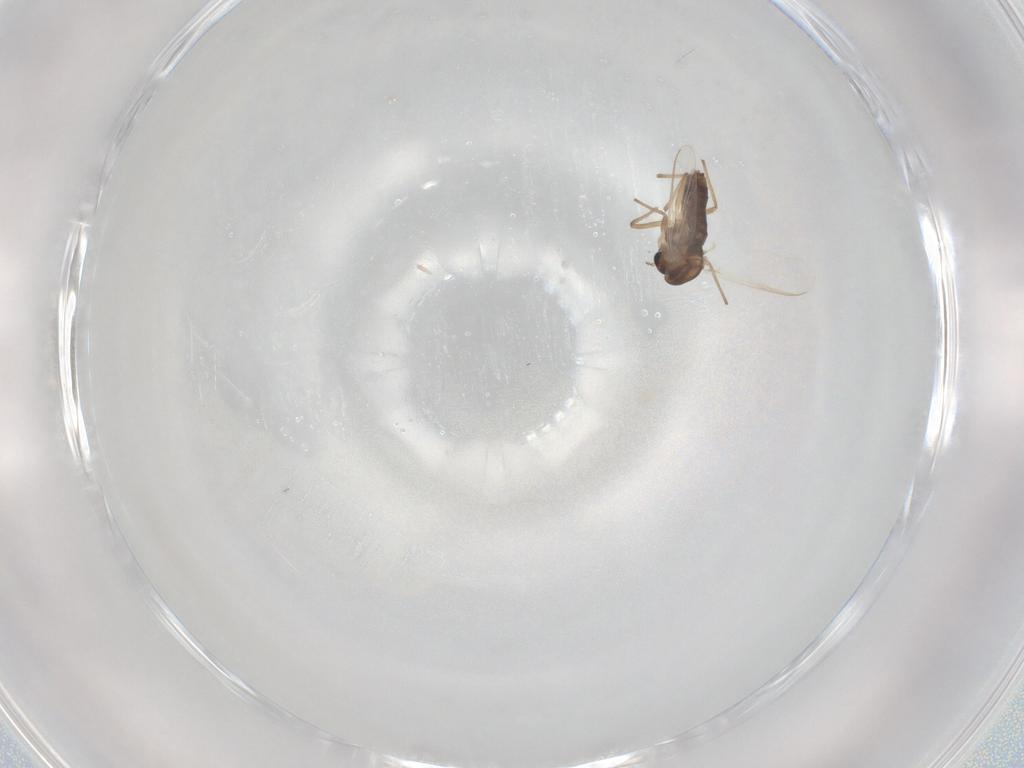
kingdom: Animalia
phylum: Arthropoda
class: Insecta
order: Diptera
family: Chironomidae
